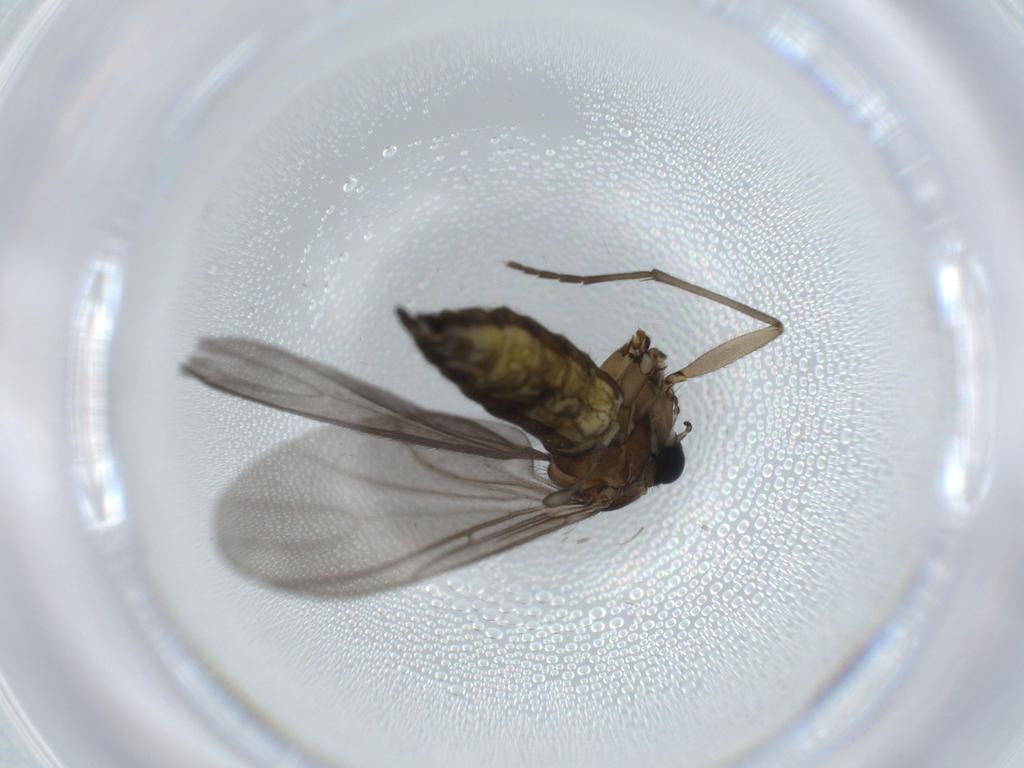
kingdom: Animalia
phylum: Arthropoda
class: Insecta
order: Diptera
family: Sciaridae
